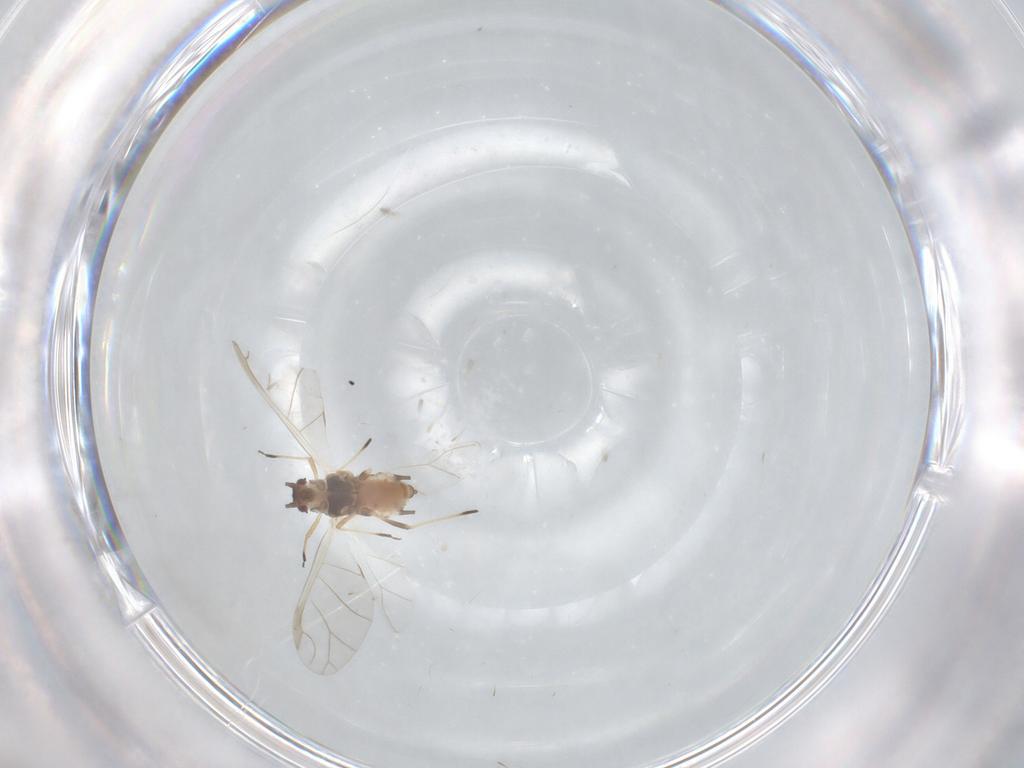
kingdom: Animalia
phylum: Arthropoda
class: Insecta
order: Hemiptera
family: Aphididae
